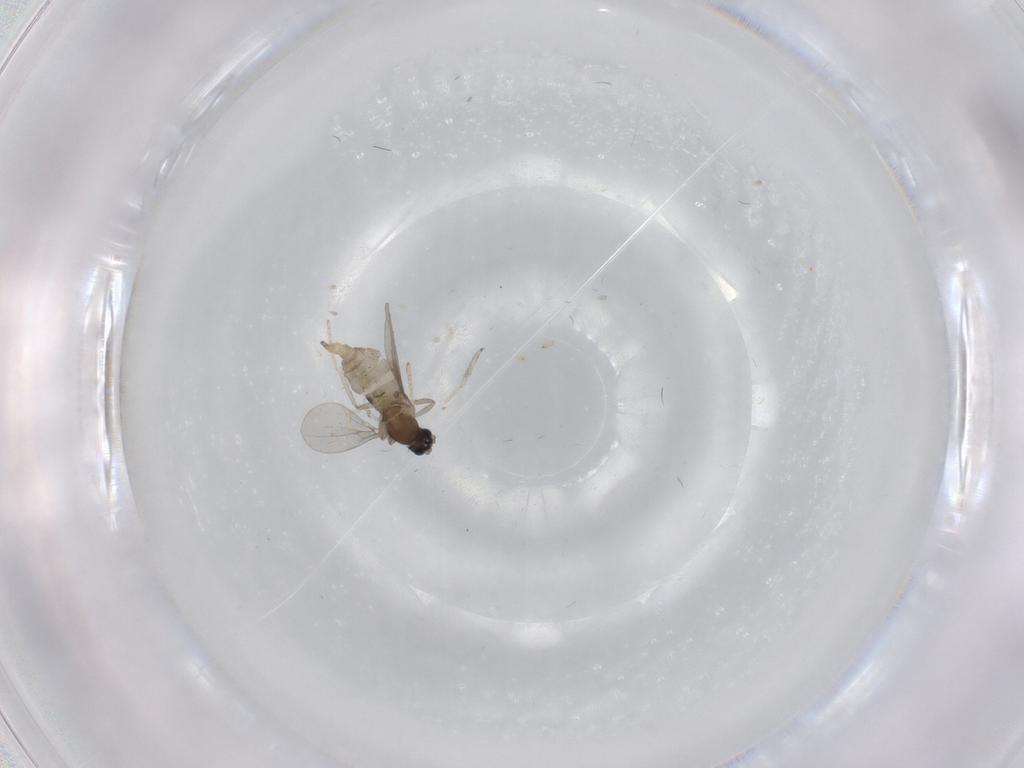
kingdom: Animalia
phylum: Arthropoda
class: Insecta
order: Diptera
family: Cecidomyiidae
